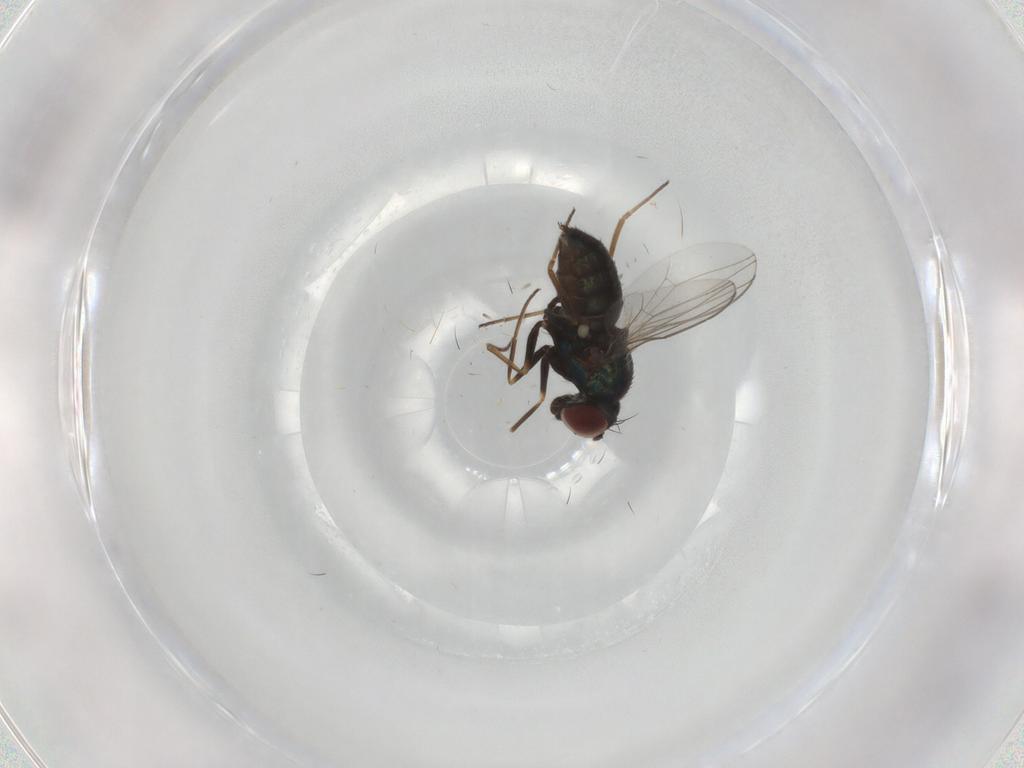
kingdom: Animalia
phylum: Arthropoda
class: Insecta
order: Diptera
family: Dolichopodidae
